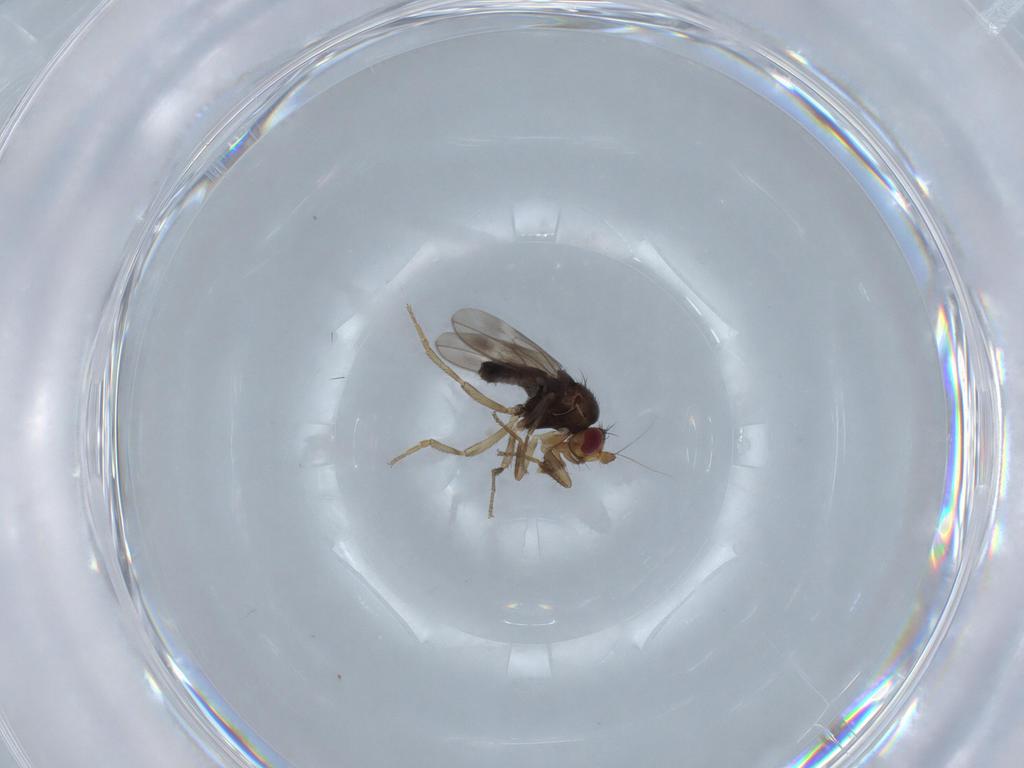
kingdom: Animalia
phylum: Arthropoda
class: Insecta
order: Diptera
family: Sphaeroceridae
